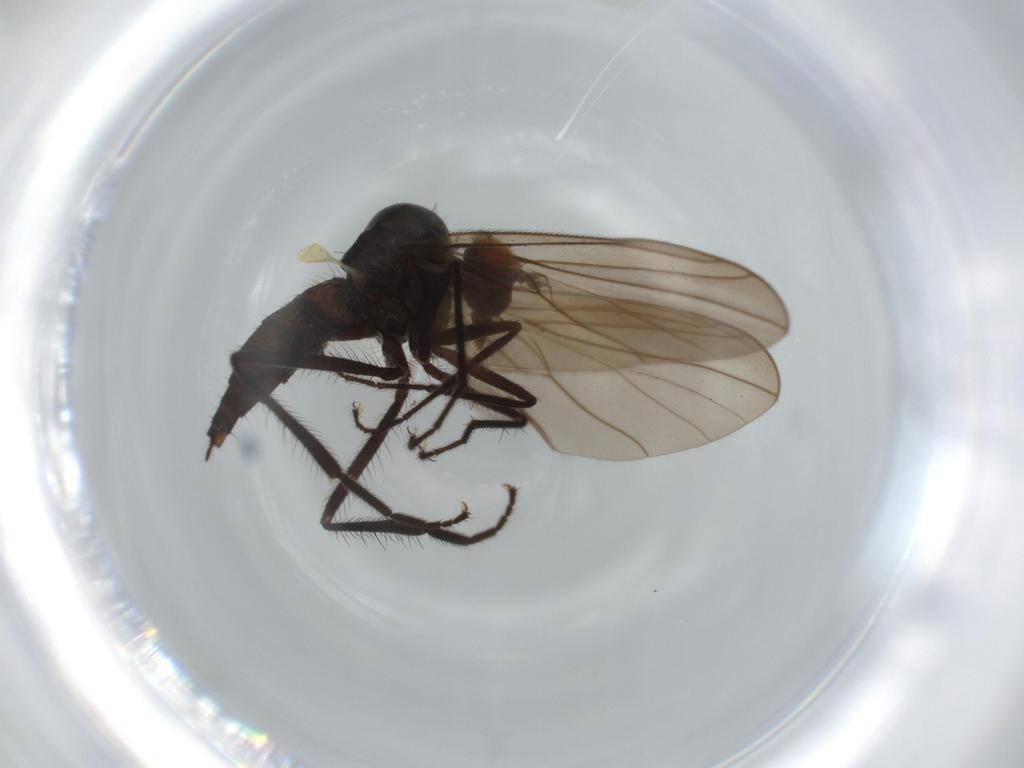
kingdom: Animalia
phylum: Arthropoda
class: Insecta
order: Diptera
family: Hybotidae
